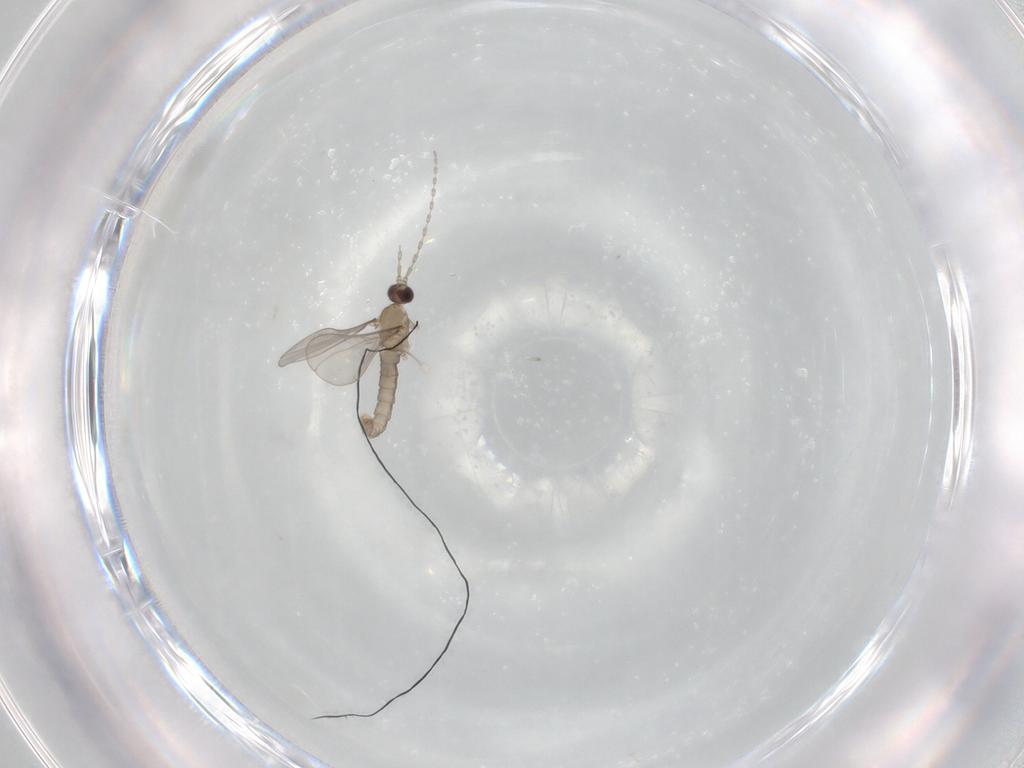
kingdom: Animalia
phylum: Arthropoda
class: Insecta
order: Diptera
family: Cecidomyiidae
